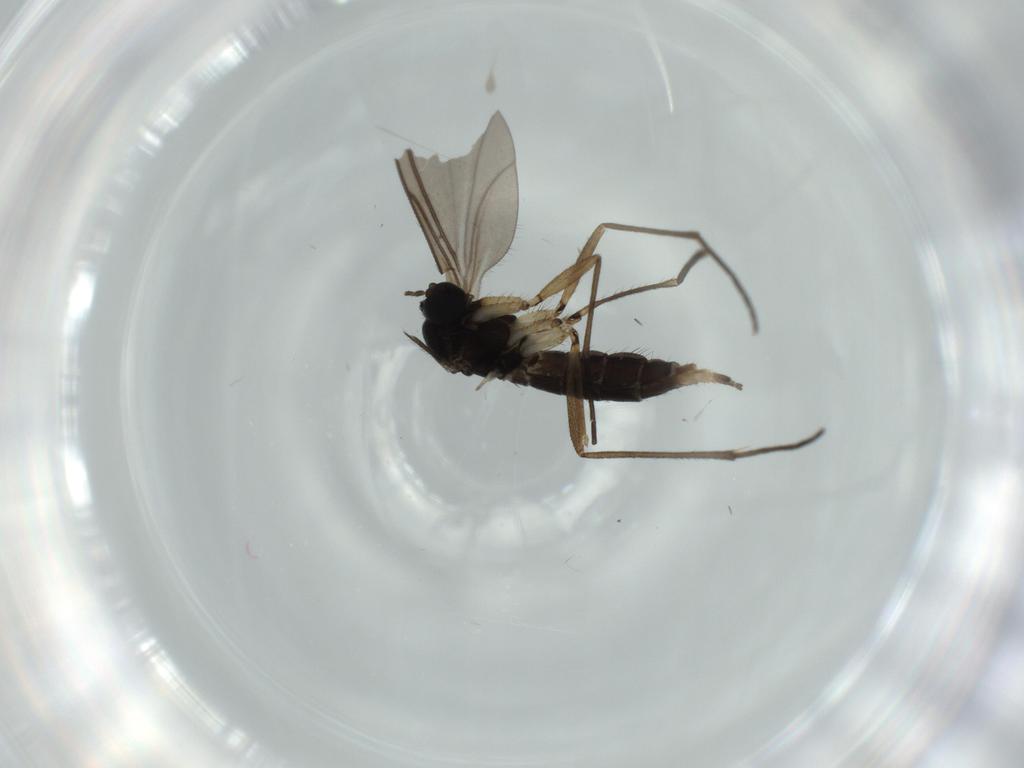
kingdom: Animalia
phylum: Arthropoda
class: Insecta
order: Diptera
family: Sciaridae
